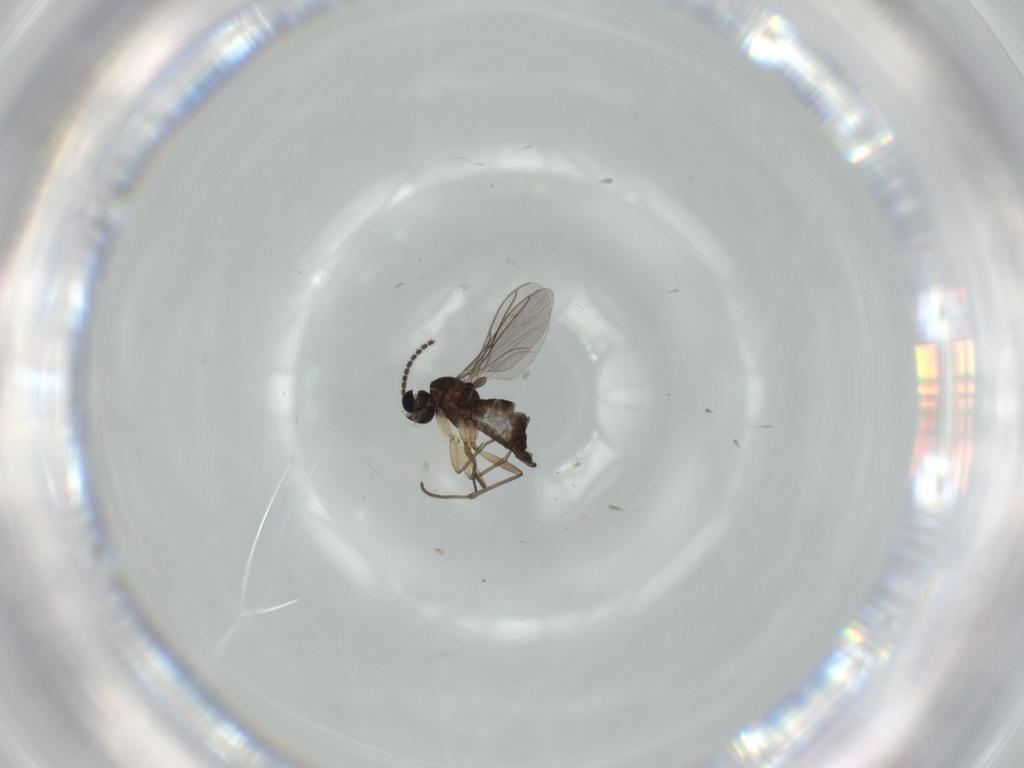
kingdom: Animalia
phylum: Arthropoda
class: Insecta
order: Diptera
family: Sciaridae
